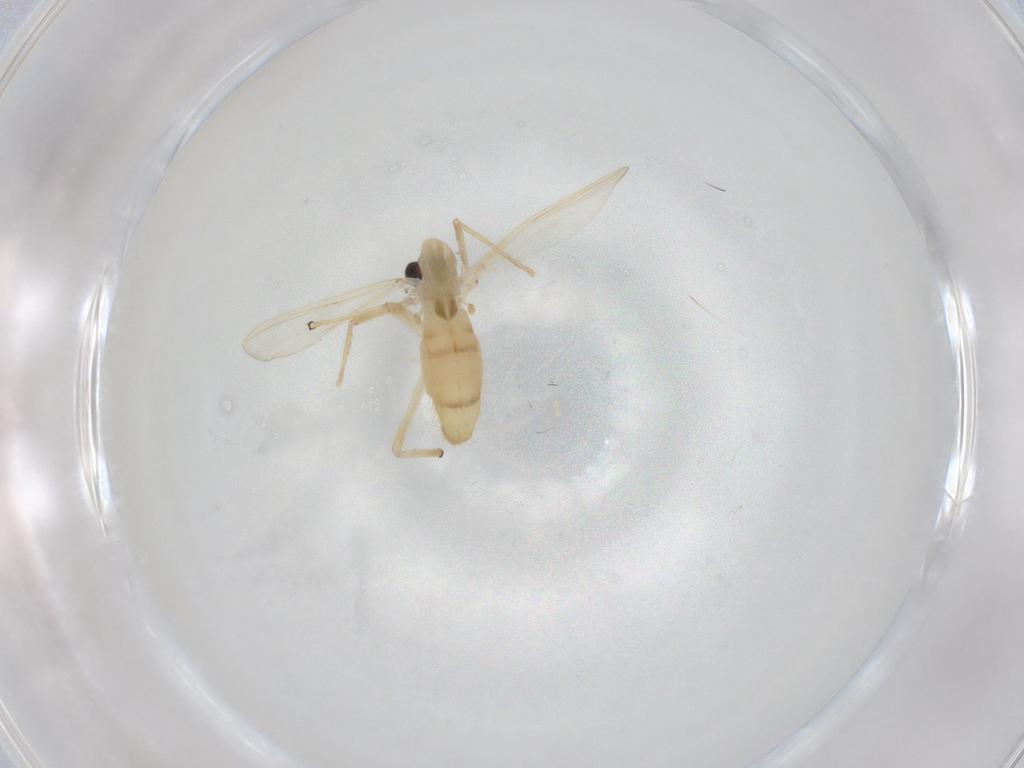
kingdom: Animalia
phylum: Arthropoda
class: Insecta
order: Diptera
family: Chironomidae
